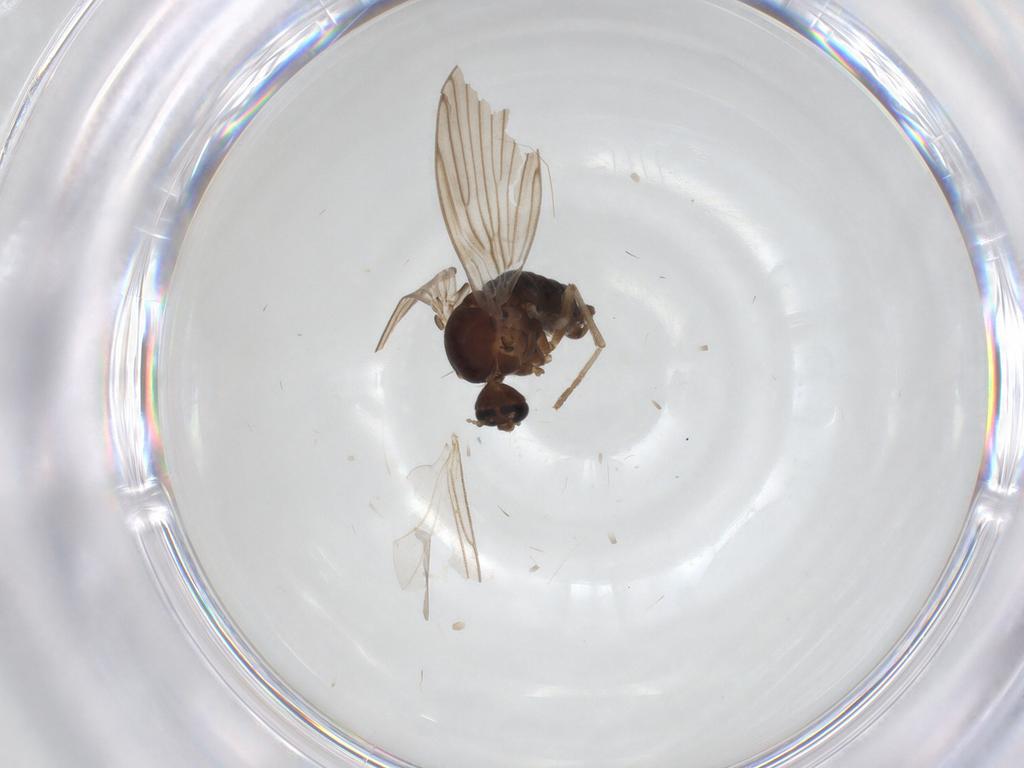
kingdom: Animalia
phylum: Arthropoda
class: Insecta
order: Diptera
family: Psychodidae
